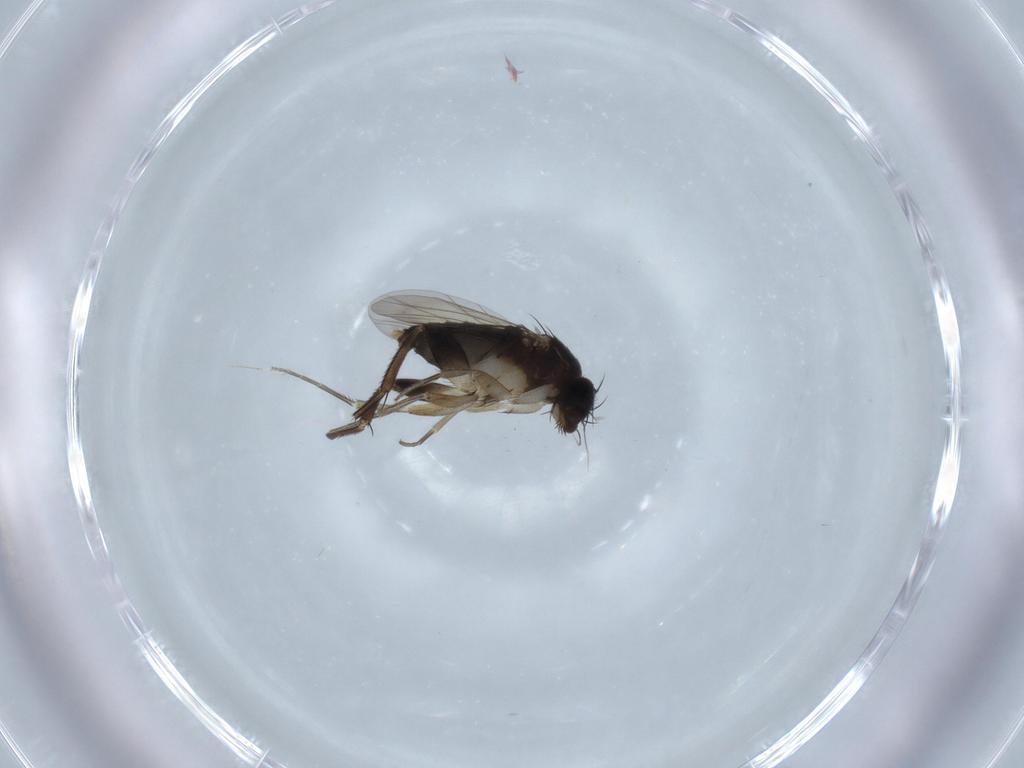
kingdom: Animalia
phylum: Arthropoda
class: Insecta
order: Diptera
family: Phoridae
